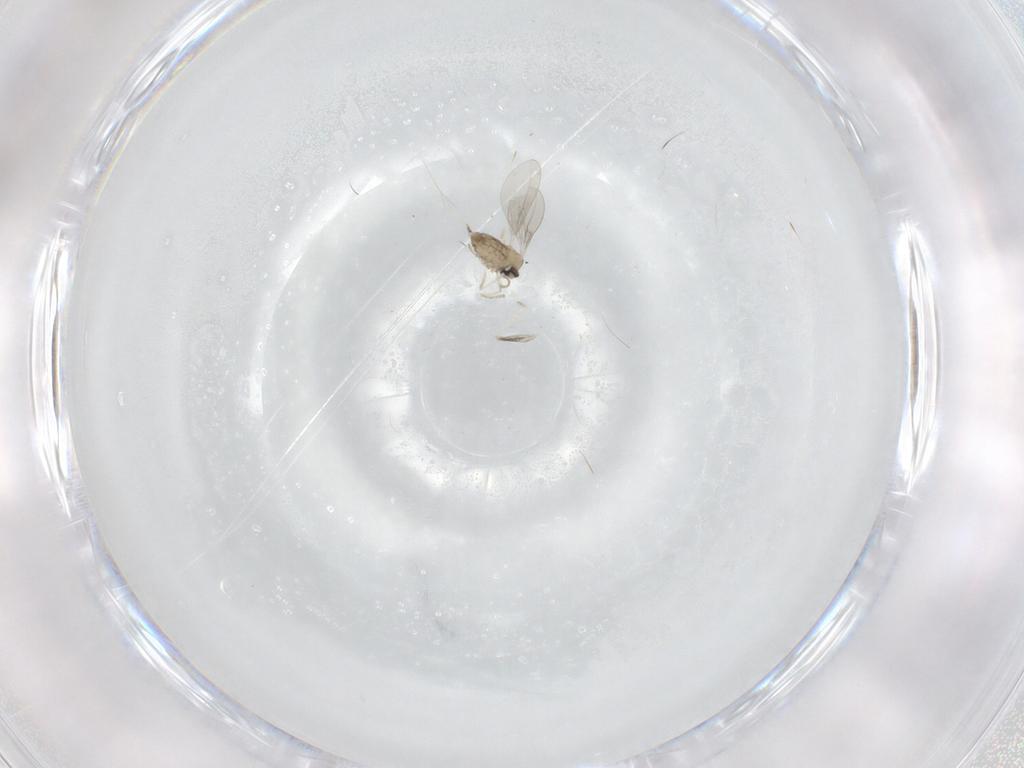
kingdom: Animalia
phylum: Arthropoda
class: Insecta
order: Diptera
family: Cecidomyiidae
